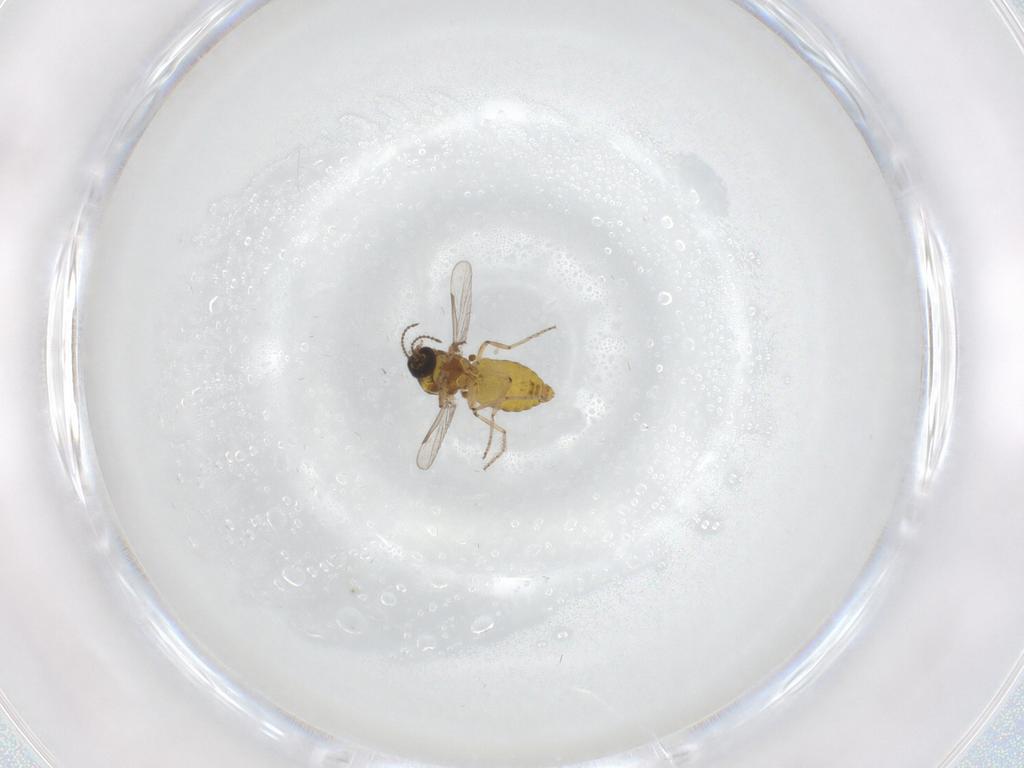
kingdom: Animalia
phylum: Arthropoda
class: Insecta
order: Diptera
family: Ceratopogonidae
